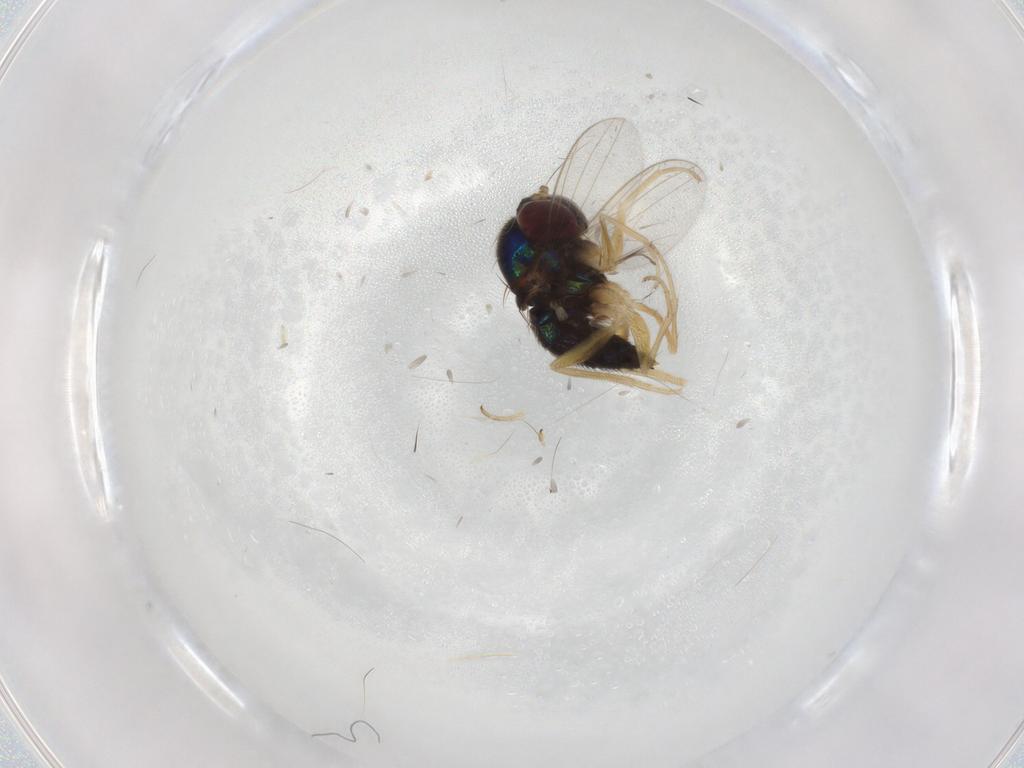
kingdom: Animalia
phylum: Arthropoda
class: Insecta
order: Diptera
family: Dolichopodidae
